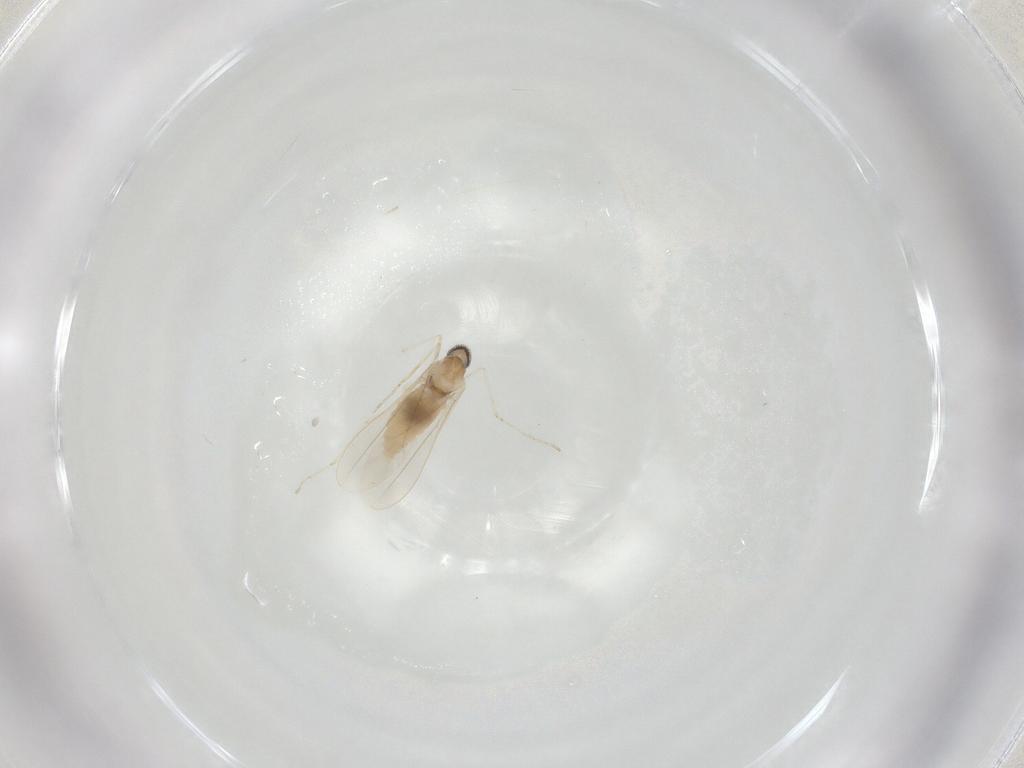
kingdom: Animalia
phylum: Arthropoda
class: Insecta
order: Diptera
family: Cecidomyiidae
